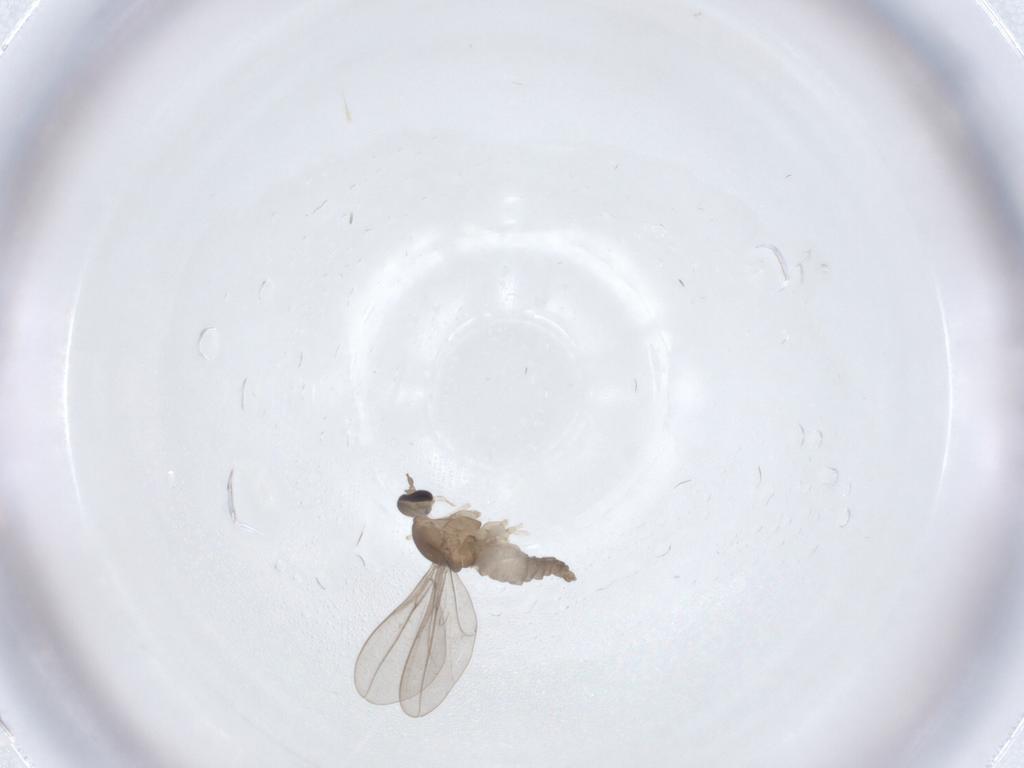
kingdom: Animalia
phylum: Arthropoda
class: Insecta
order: Diptera
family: Cecidomyiidae
